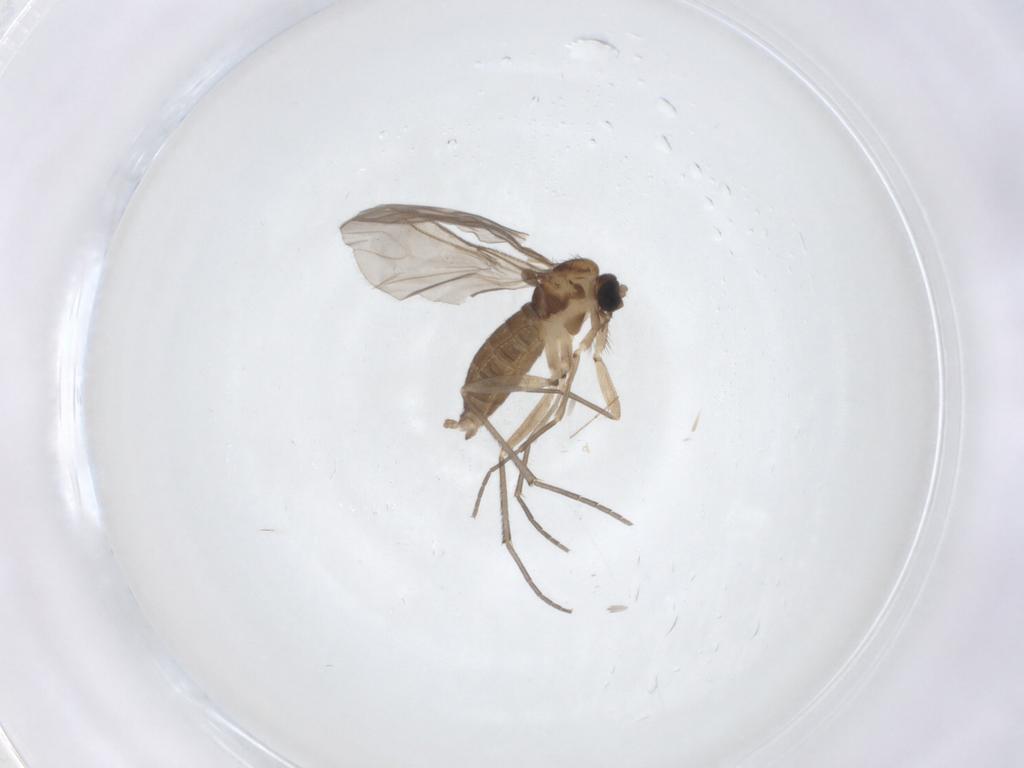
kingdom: Animalia
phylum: Arthropoda
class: Insecta
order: Diptera
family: Sciaridae
